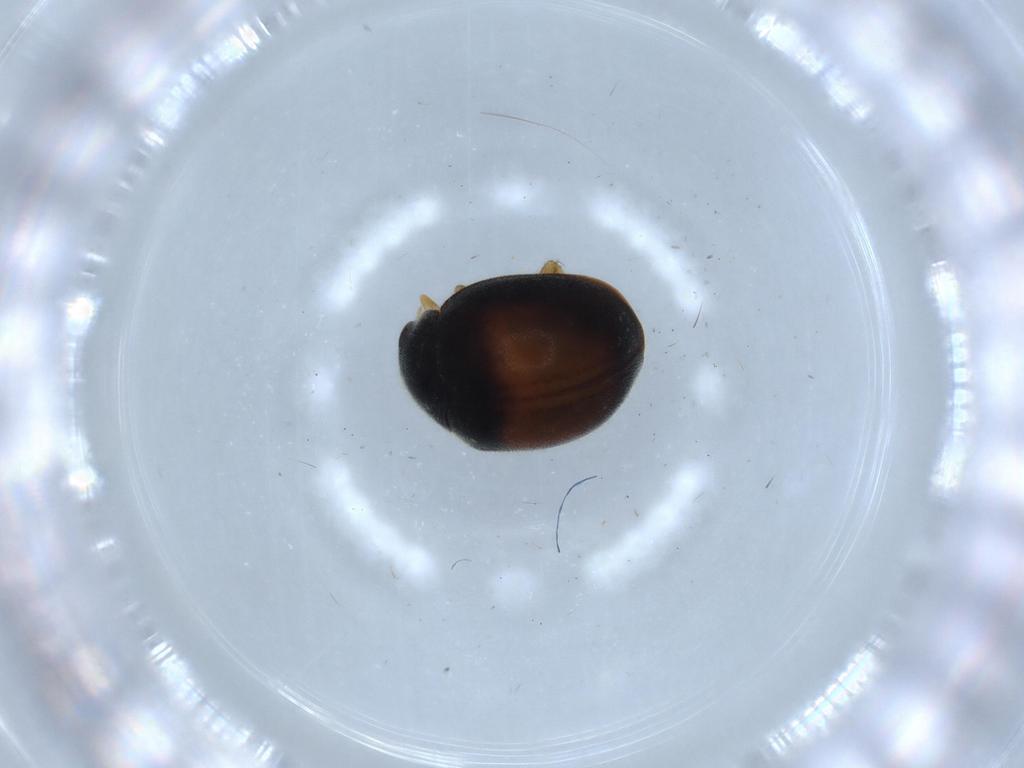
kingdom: Animalia
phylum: Arthropoda
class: Insecta
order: Coleoptera
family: Coccinellidae
